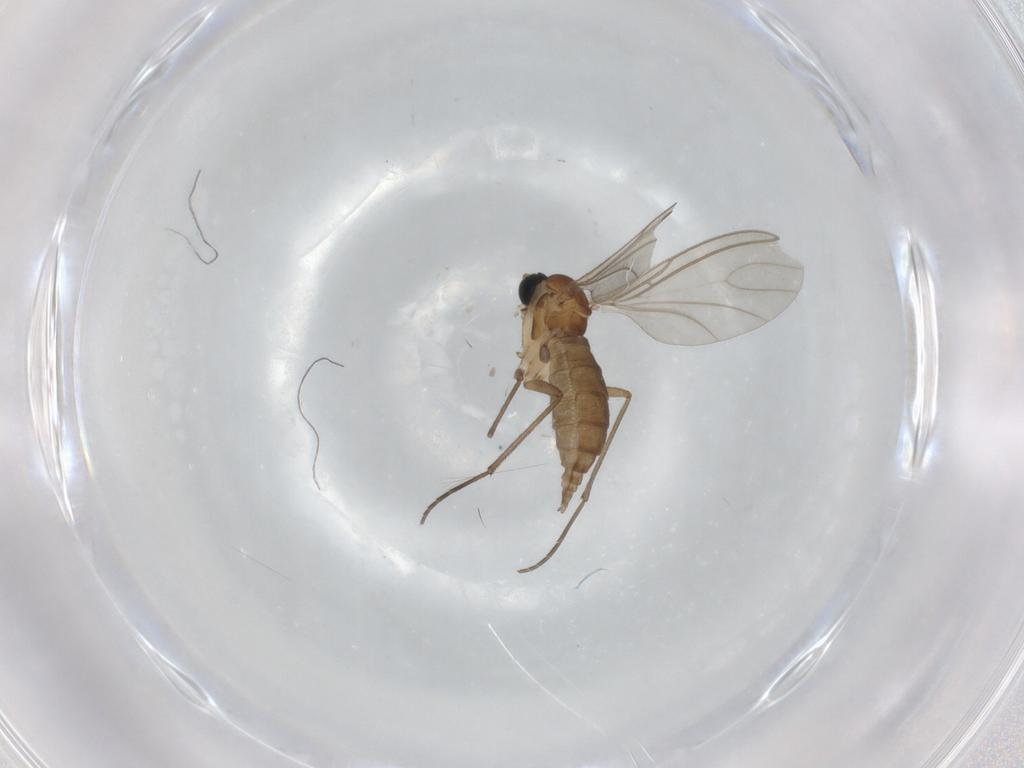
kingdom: Animalia
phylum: Arthropoda
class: Insecta
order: Diptera
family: Sciaridae
